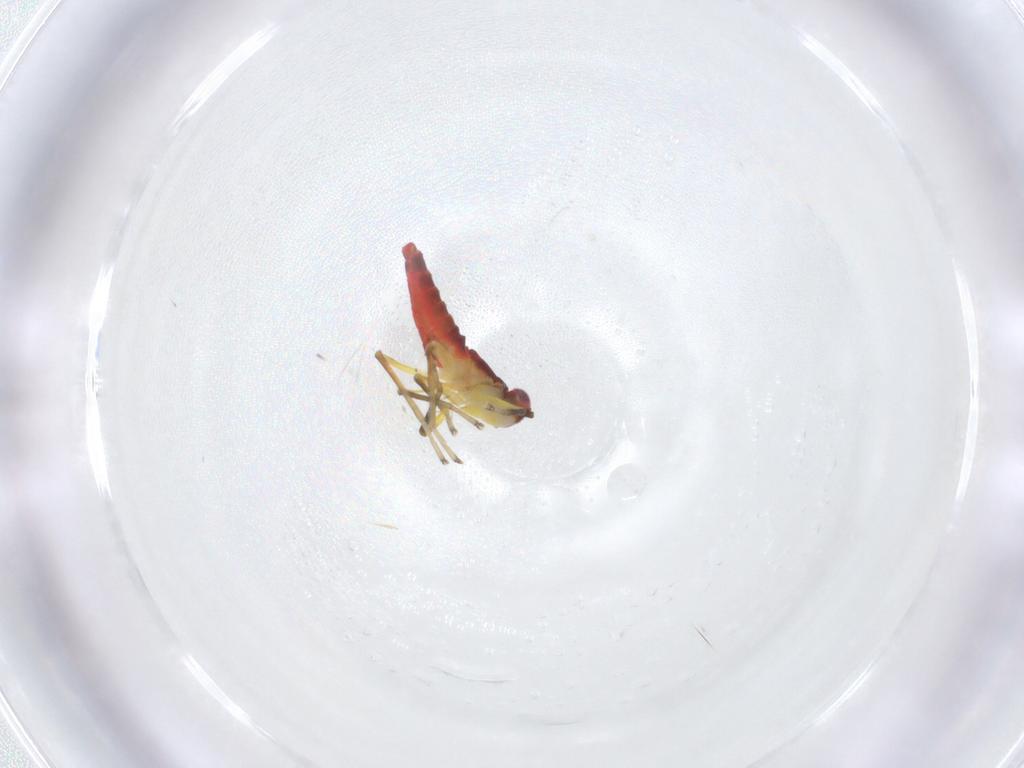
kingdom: Animalia
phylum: Arthropoda
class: Insecta
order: Hemiptera
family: Cicadellidae
